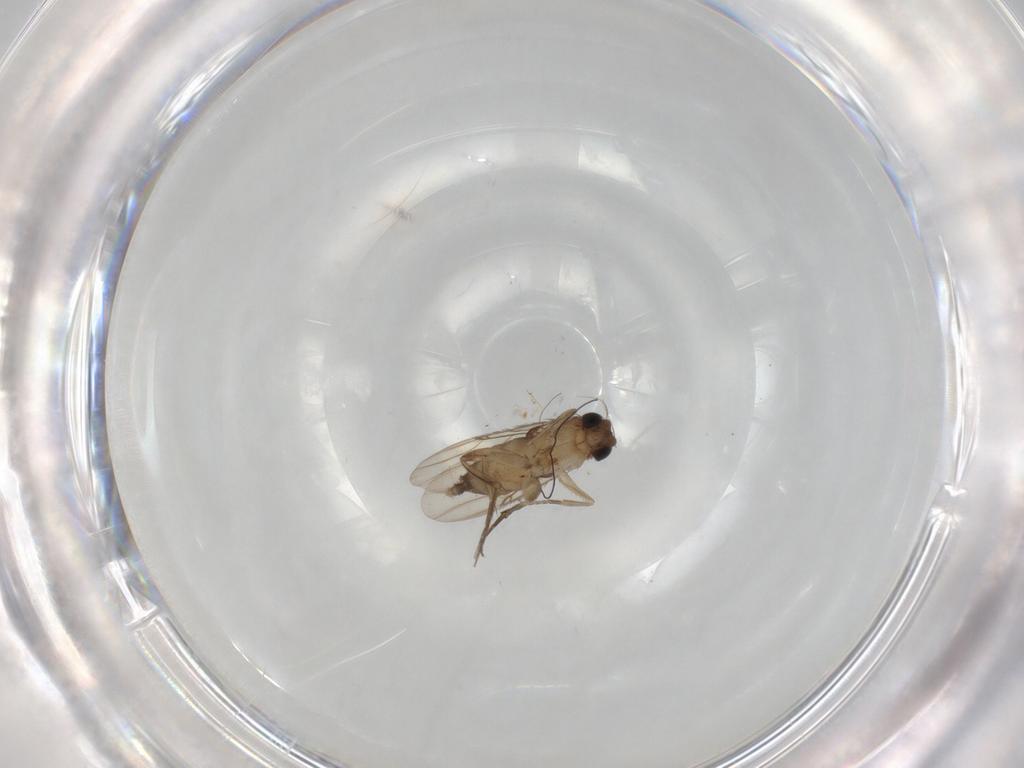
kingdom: Animalia
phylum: Arthropoda
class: Insecta
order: Diptera
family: Phoridae
